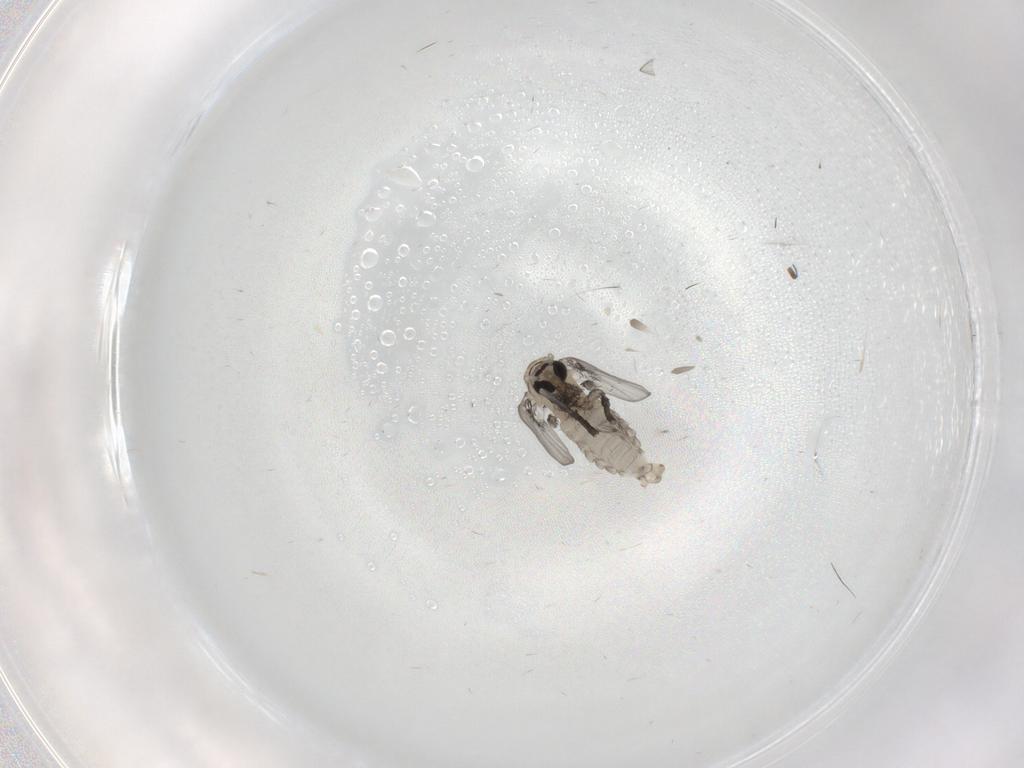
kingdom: Animalia
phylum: Arthropoda
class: Insecta
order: Diptera
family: Psychodidae
